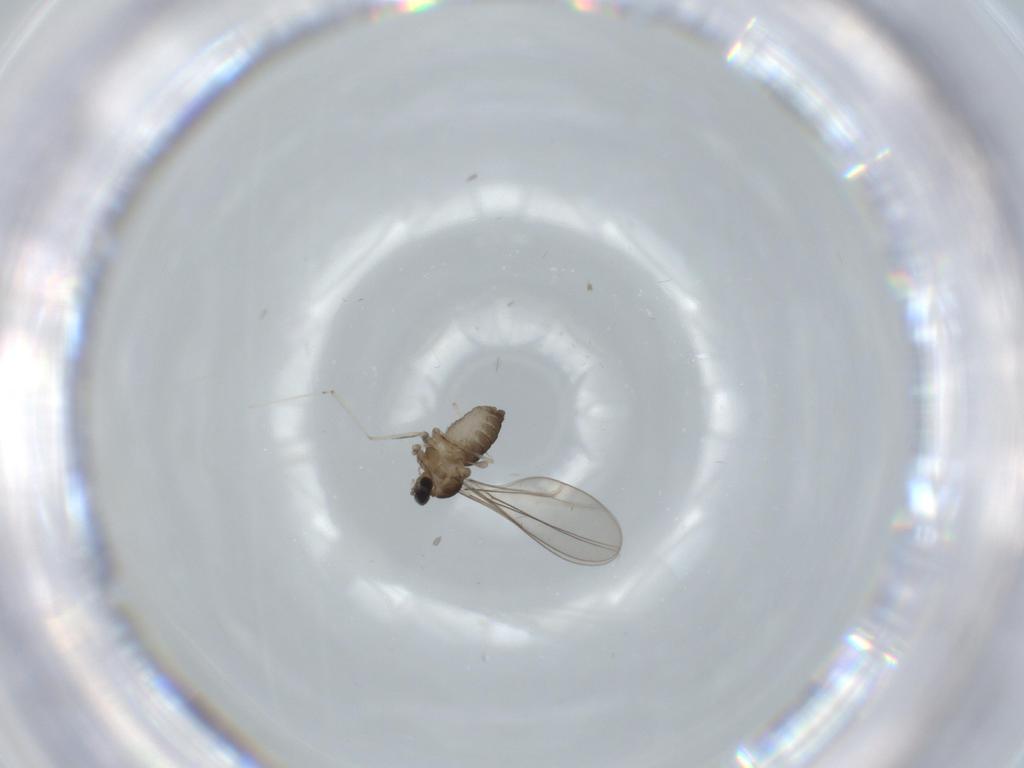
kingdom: Animalia
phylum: Arthropoda
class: Insecta
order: Diptera
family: Cecidomyiidae
